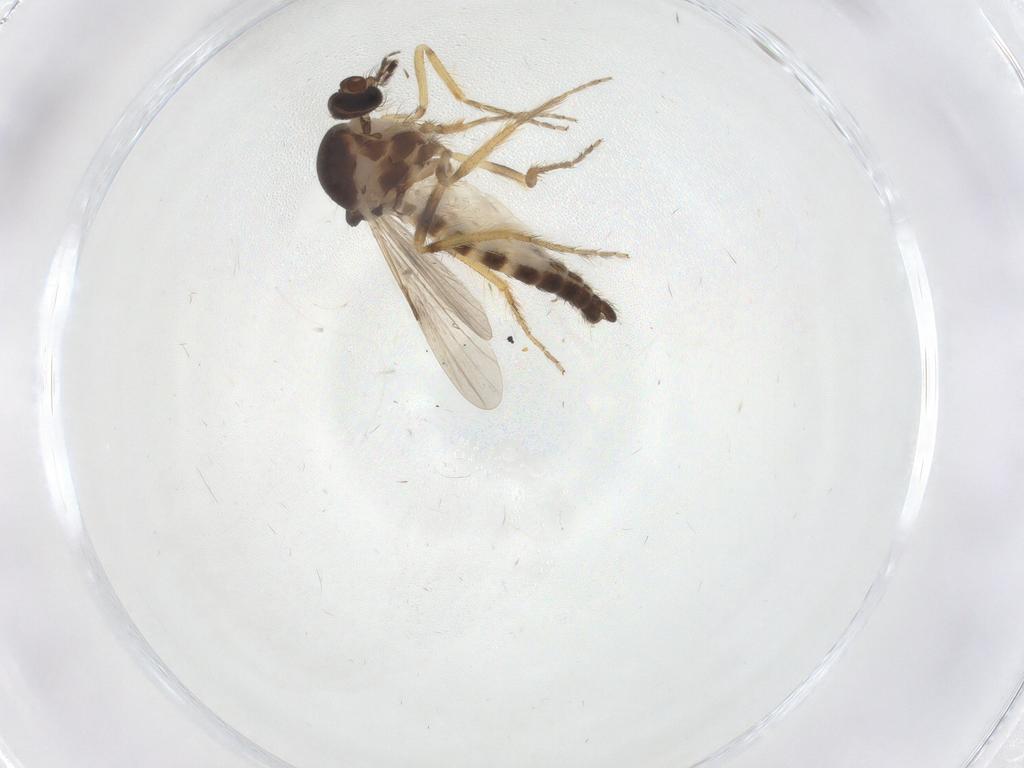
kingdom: Animalia
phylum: Arthropoda
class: Insecta
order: Diptera
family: Ceratopogonidae
